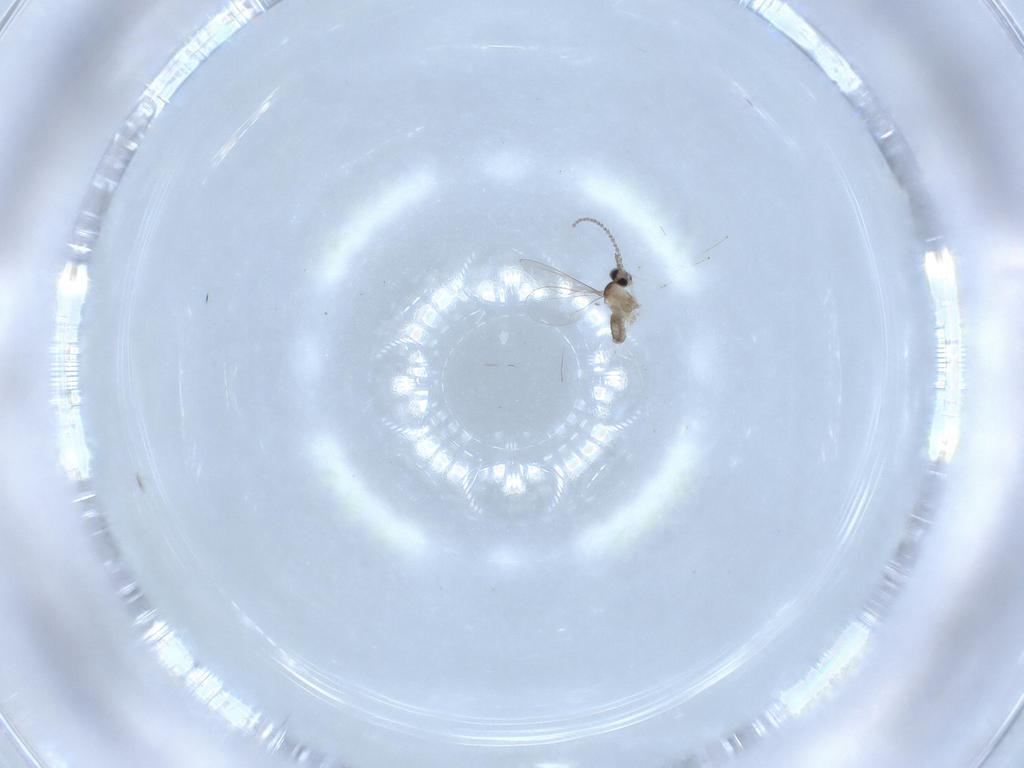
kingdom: Animalia
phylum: Arthropoda
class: Insecta
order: Diptera
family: Cecidomyiidae
